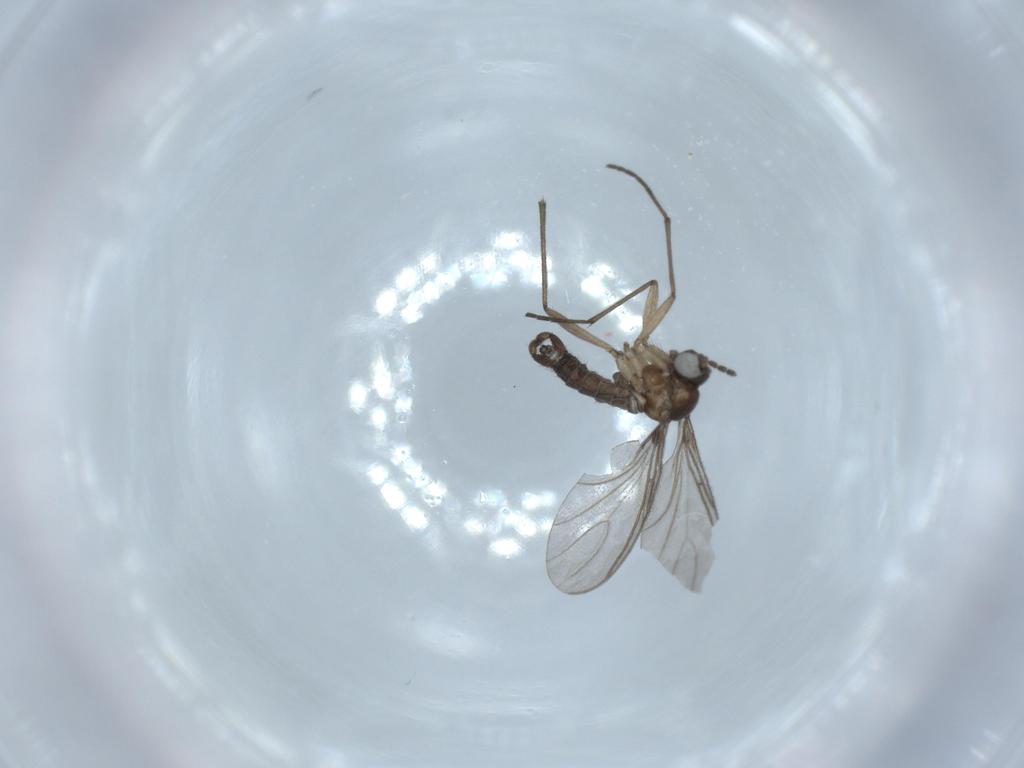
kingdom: Animalia
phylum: Arthropoda
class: Insecta
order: Diptera
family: Sciaridae
